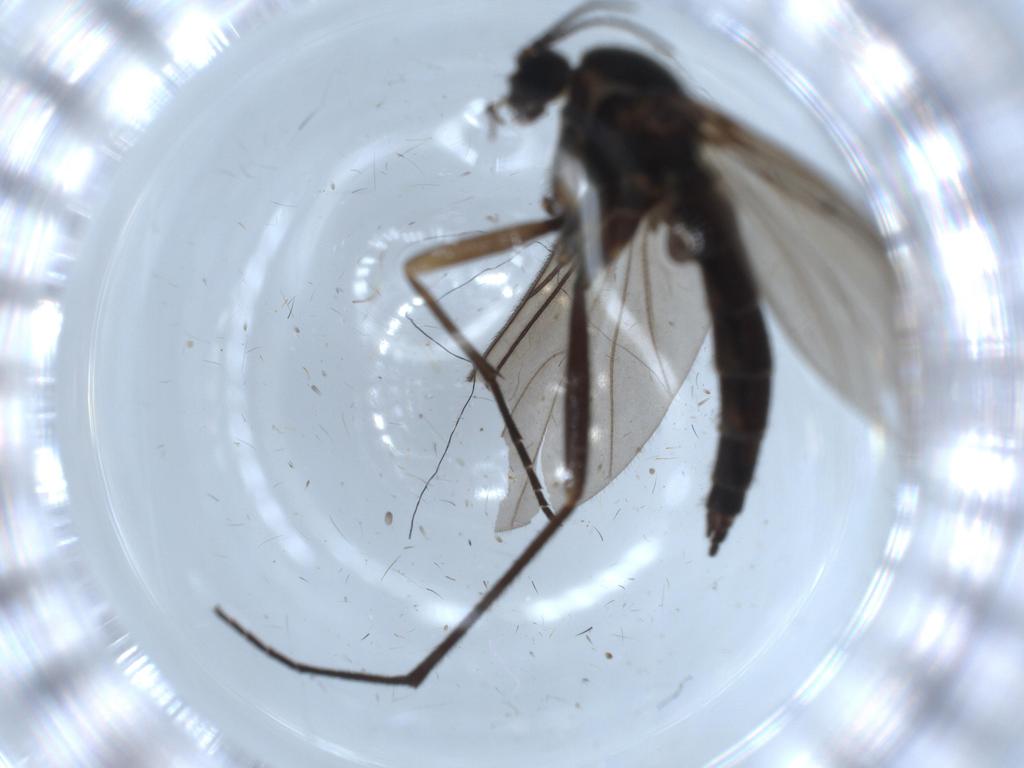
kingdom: Animalia
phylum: Arthropoda
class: Insecta
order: Diptera
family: Sciaridae
